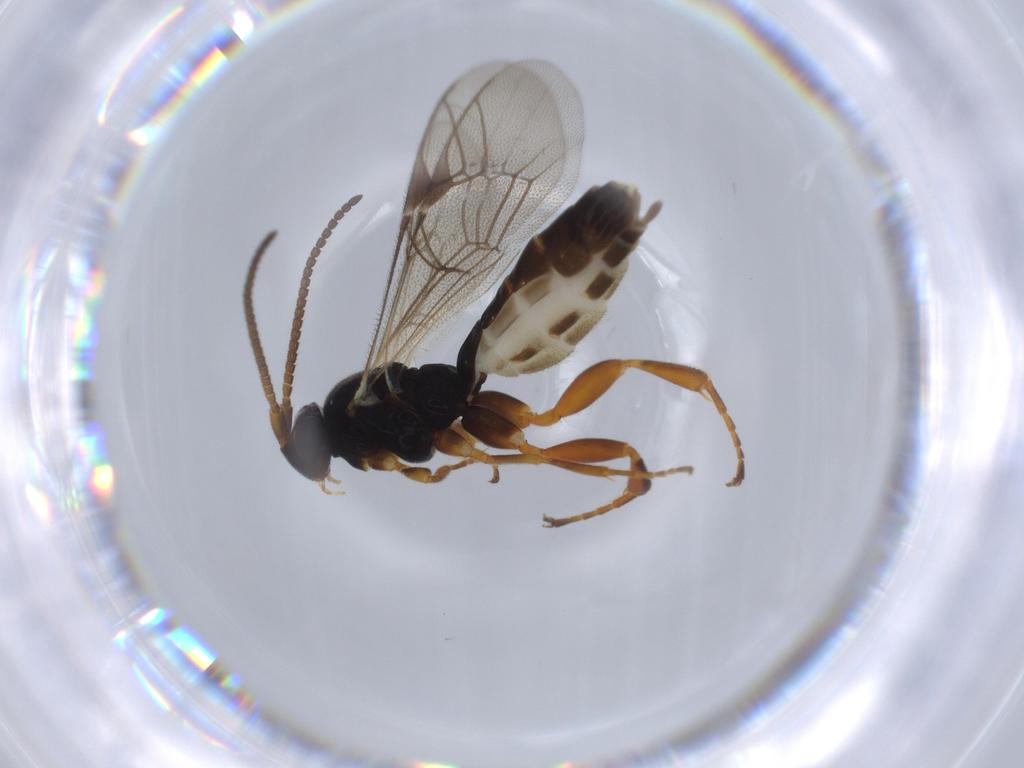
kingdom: Animalia
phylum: Arthropoda
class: Insecta
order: Hymenoptera
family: Ichneumonidae
